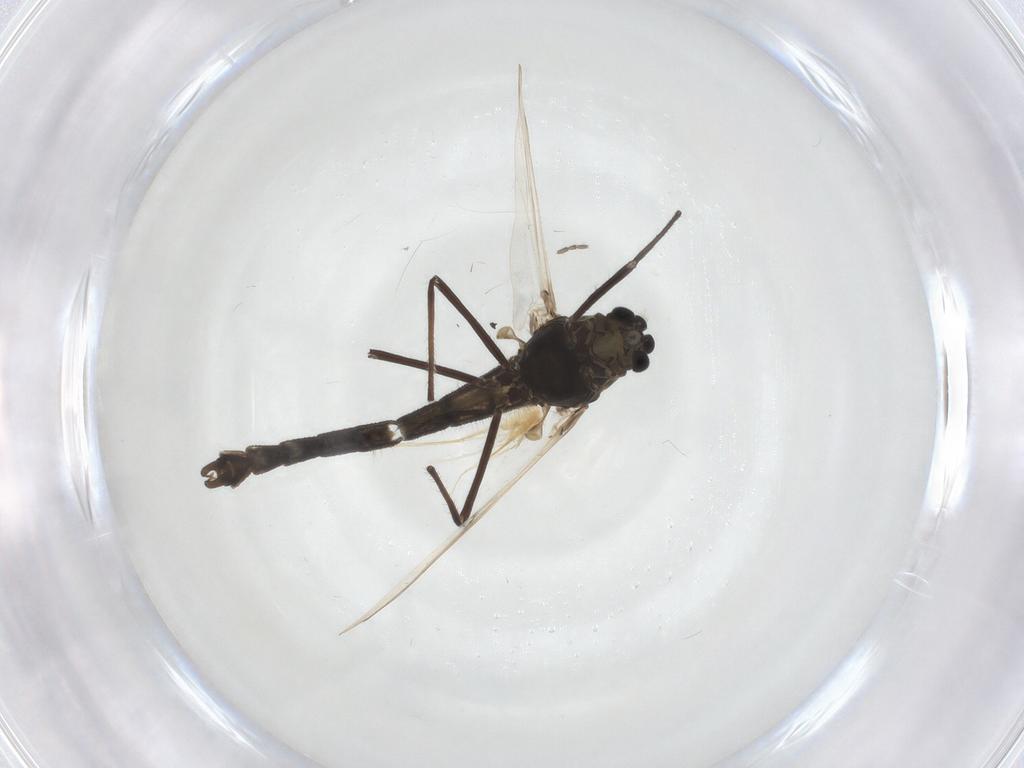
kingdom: Animalia
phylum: Arthropoda
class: Insecta
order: Diptera
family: Chironomidae
